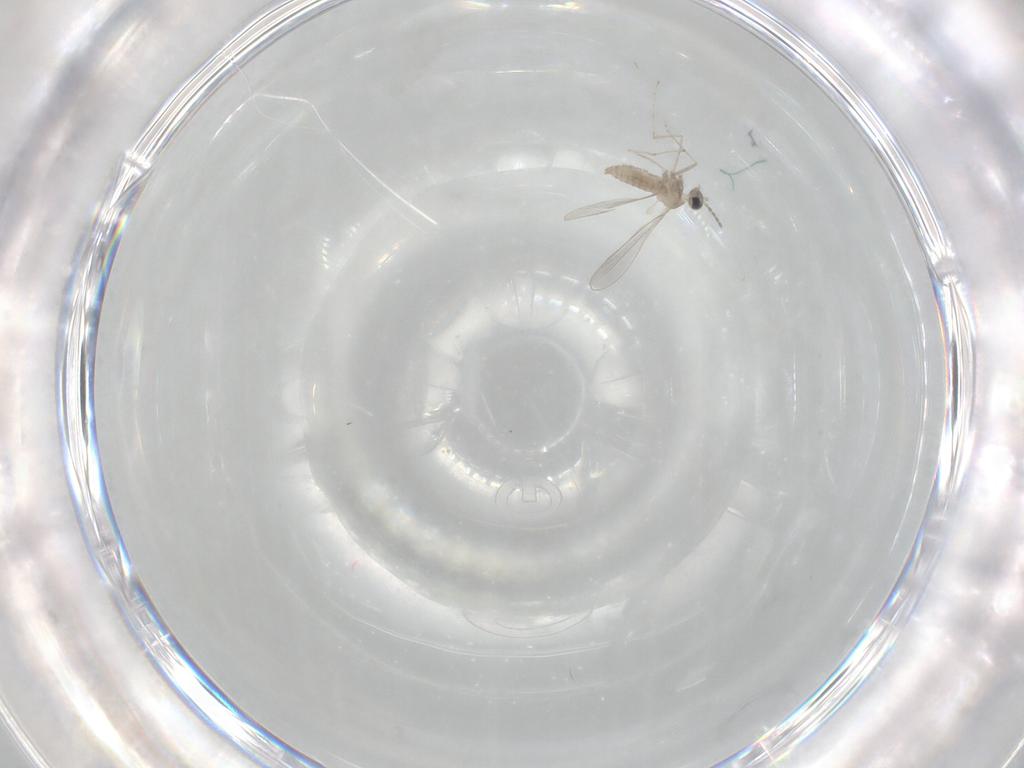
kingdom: Animalia
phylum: Arthropoda
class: Insecta
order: Diptera
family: Cecidomyiidae
